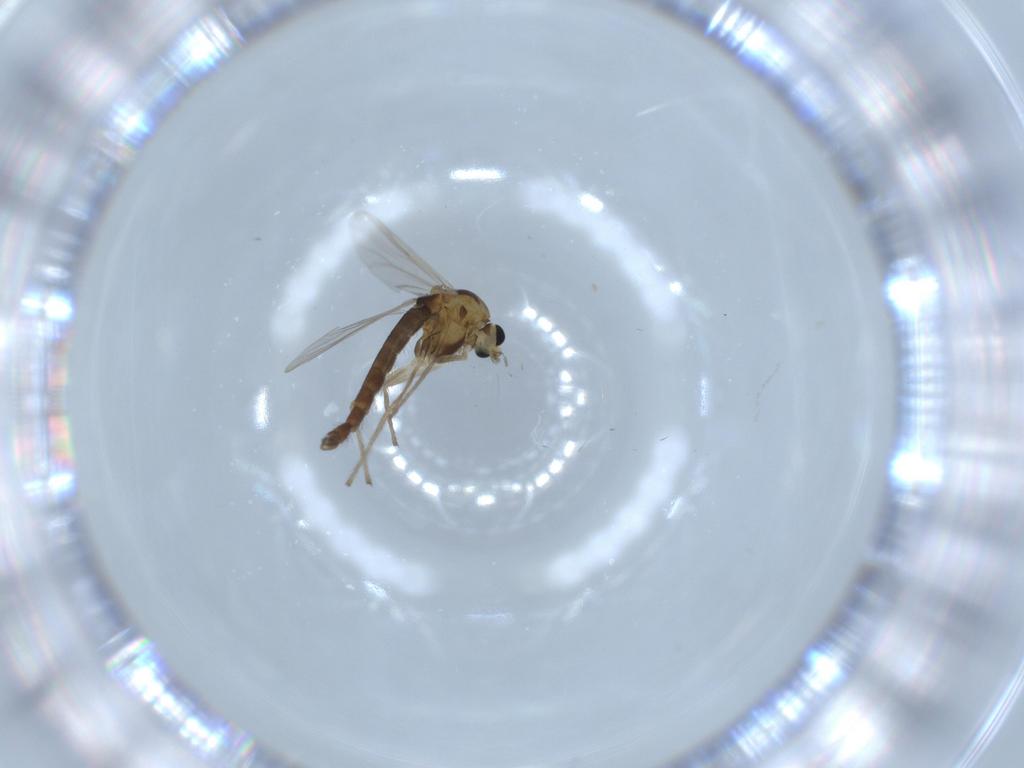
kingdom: Animalia
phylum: Arthropoda
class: Insecta
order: Diptera
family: Chironomidae
